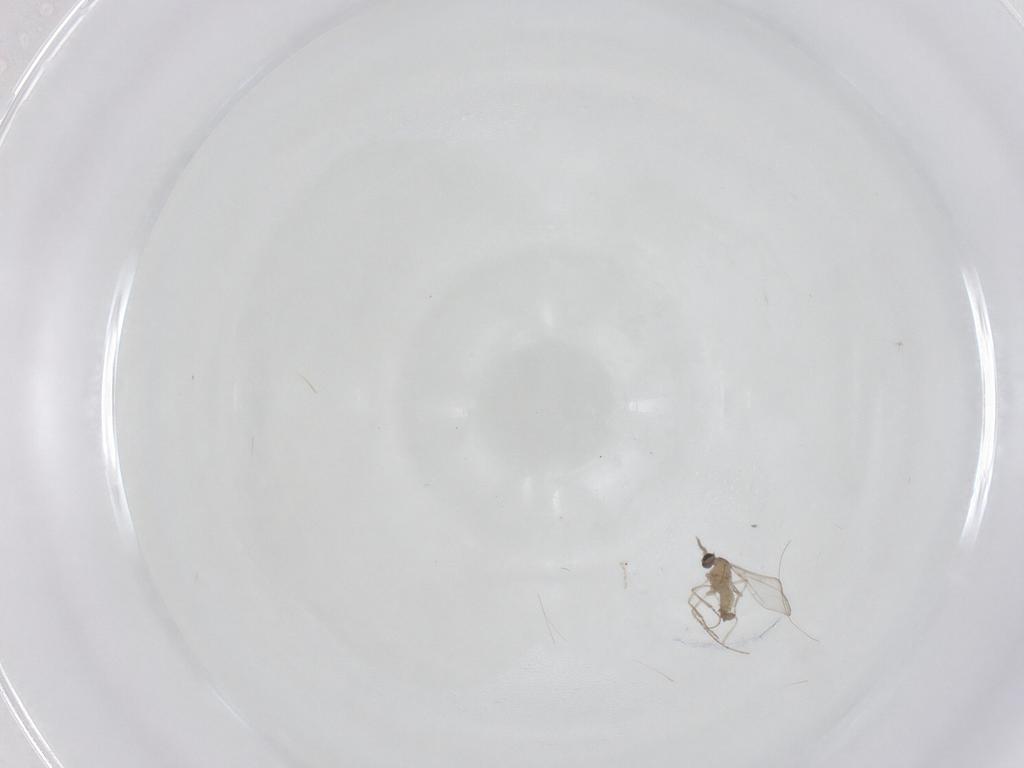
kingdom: Animalia
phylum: Arthropoda
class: Insecta
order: Diptera
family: Cecidomyiidae
